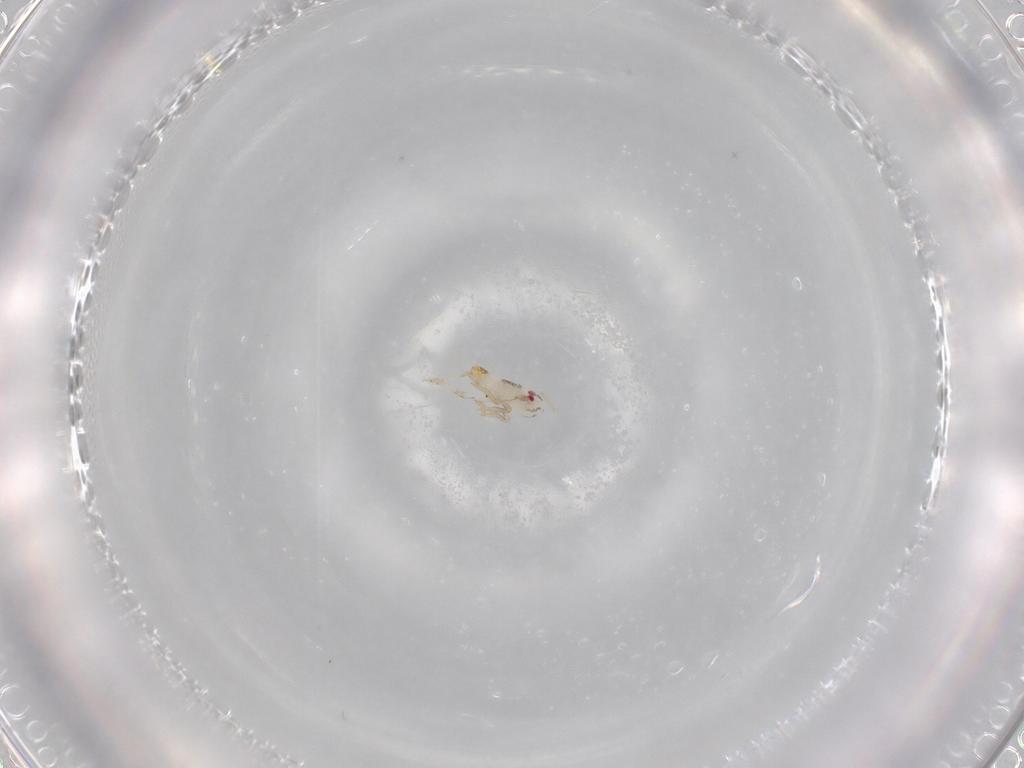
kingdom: Animalia
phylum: Arthropoda
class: Insecta
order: Hemiptera
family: Delphacidae
